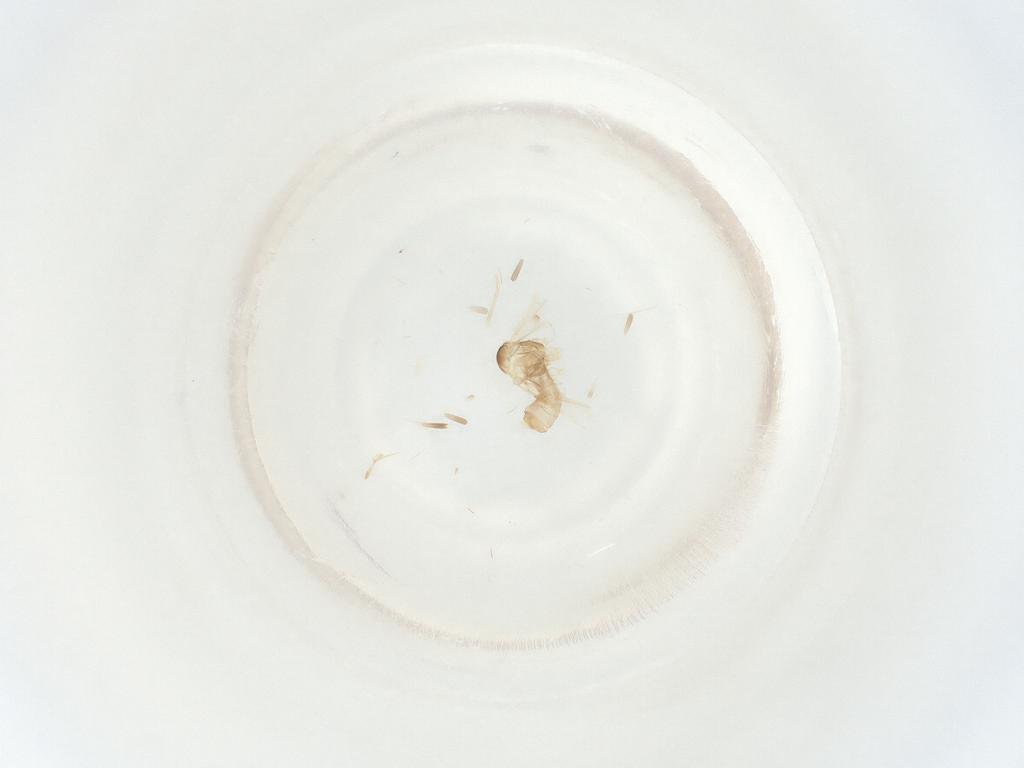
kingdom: Animalia
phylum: Arthropoda
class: Insecta
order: Diptera
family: Cecidomyiidae
